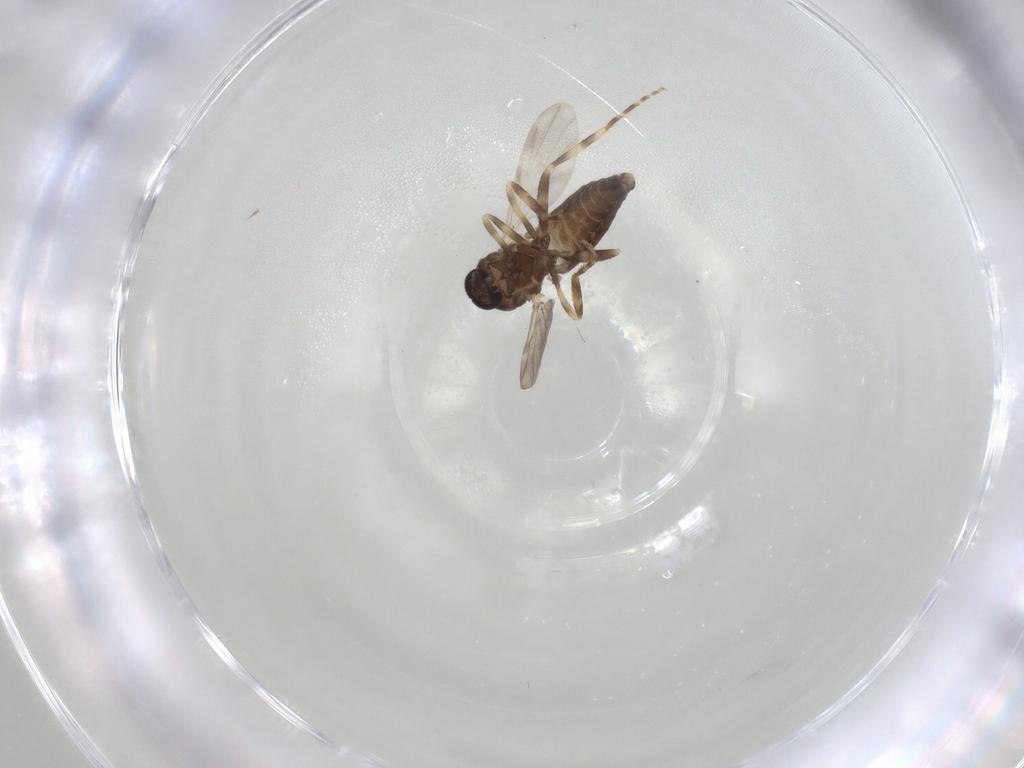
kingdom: Animalia
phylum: Arthropoda
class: Insecta
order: Diptera
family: Ceratopogonidae
